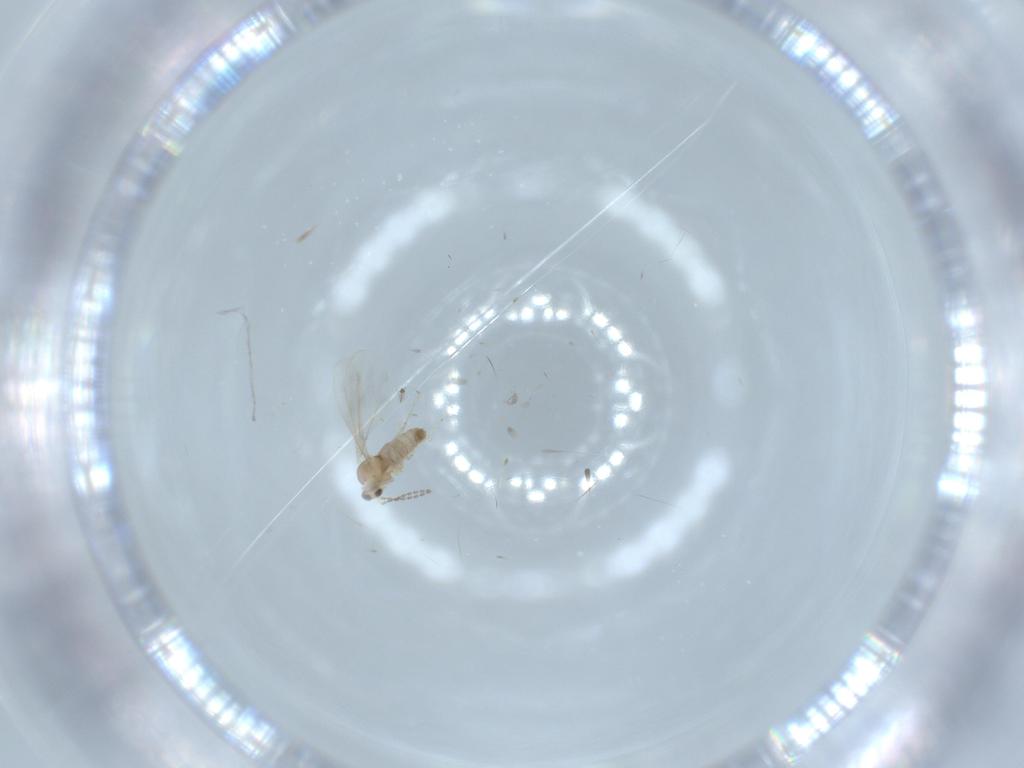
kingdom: Animalia
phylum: Arthropoda
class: Insecta
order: Diptera
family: Cecidomyiidae
